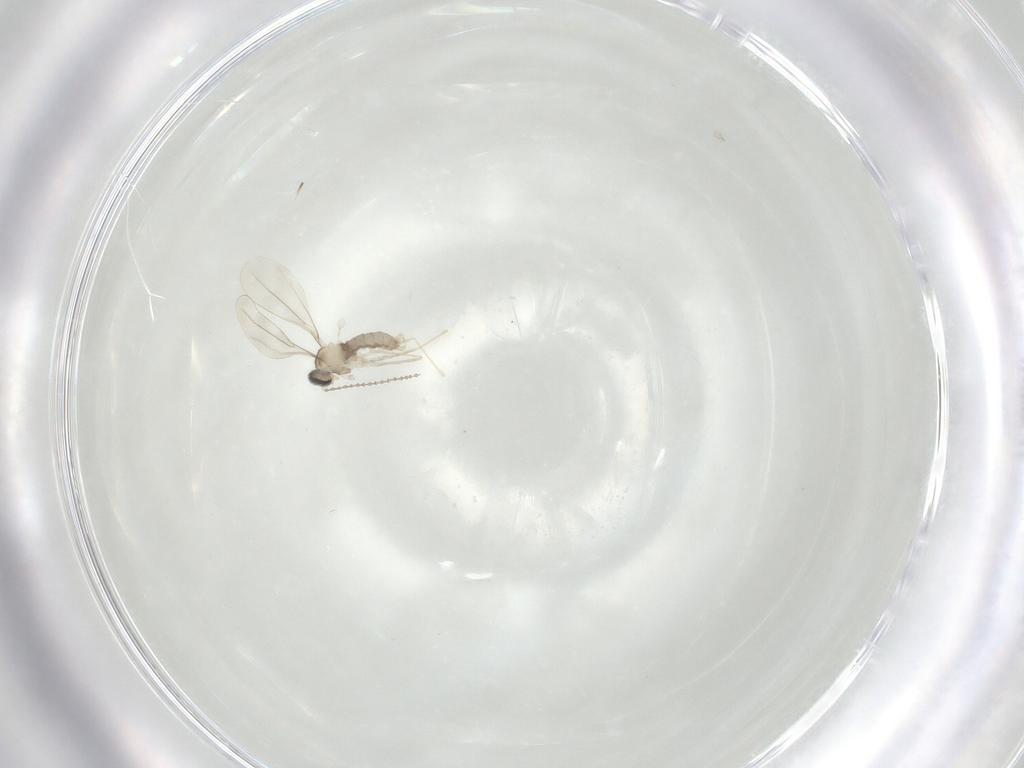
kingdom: Animalia
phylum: Arthropoda
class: Insecta
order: Diptera
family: Cecidomyiidae
